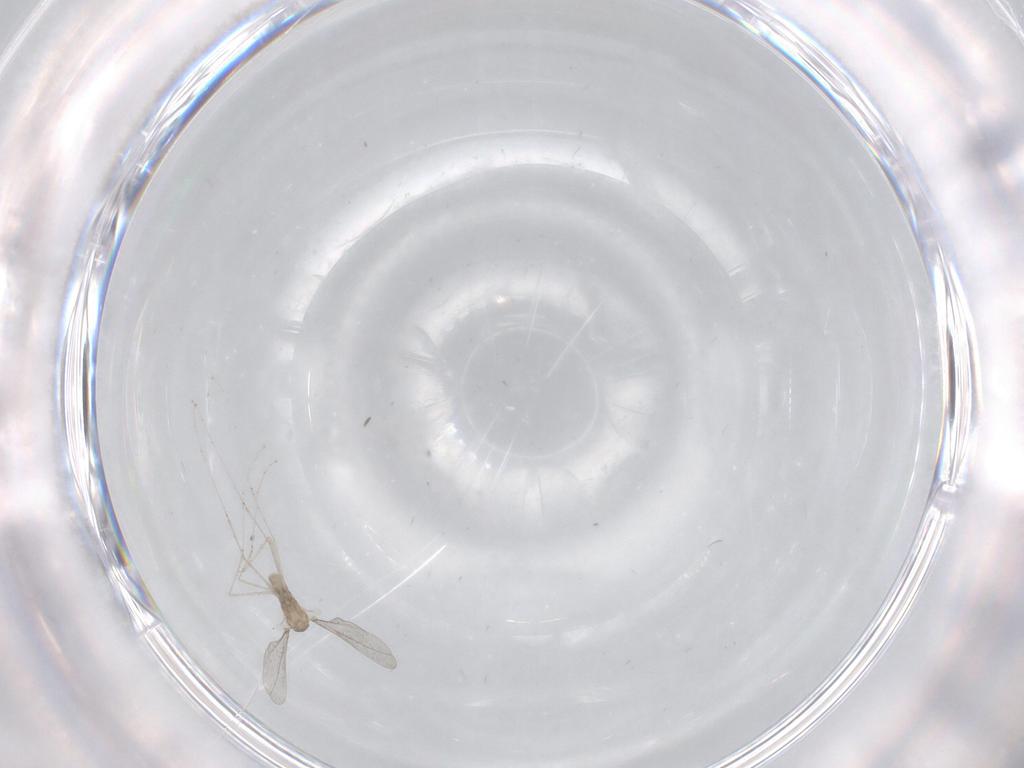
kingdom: Animalia
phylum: Arthropoda
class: Insecta
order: Diptera
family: Cecidomyiidae
